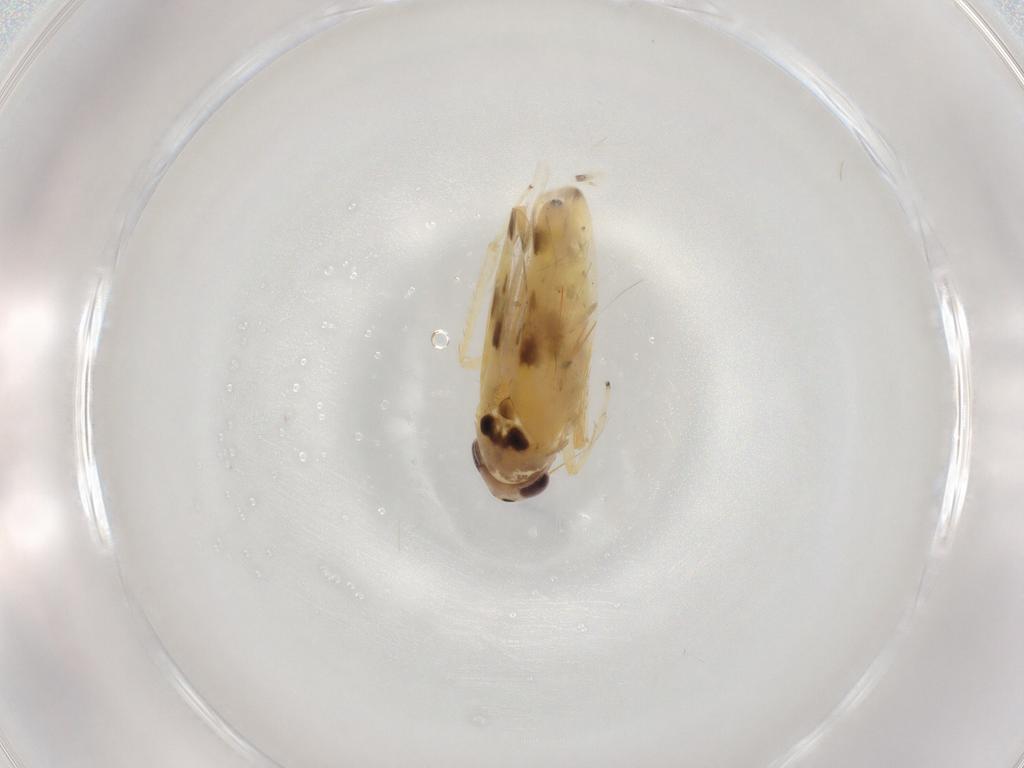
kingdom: Animalia
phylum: Arthropoda
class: Insecta
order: Hemiptera
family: Cicadellidae
